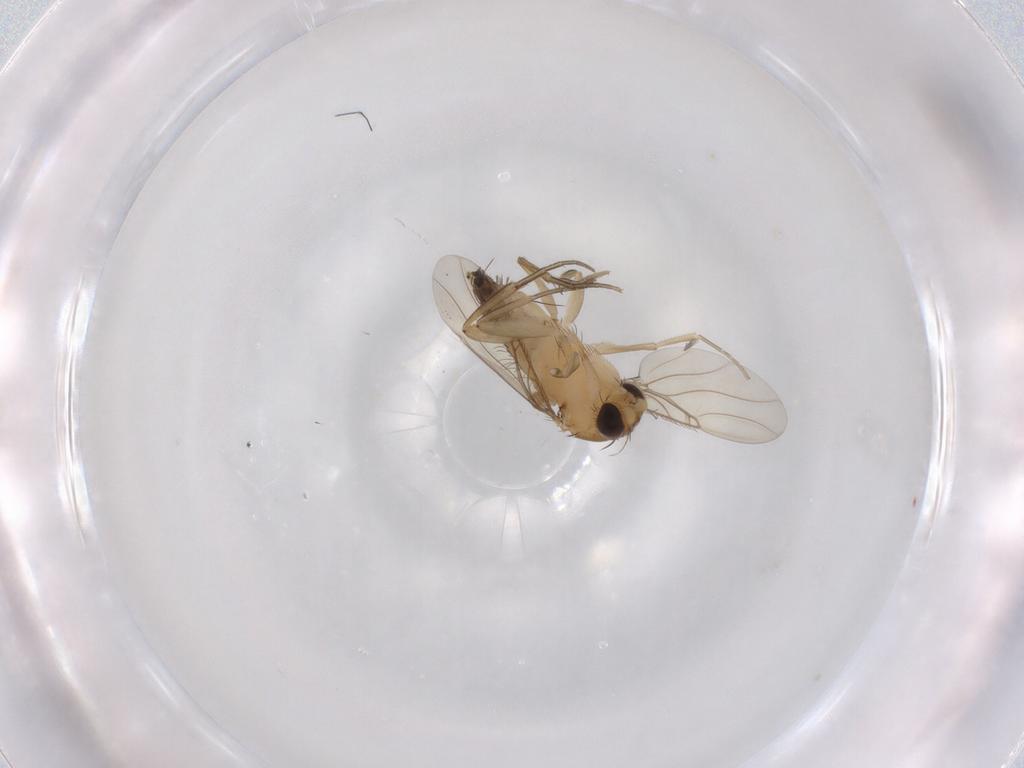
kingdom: Animalia
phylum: Arthropoda
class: Insecta
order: Diptera
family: Phoridae
